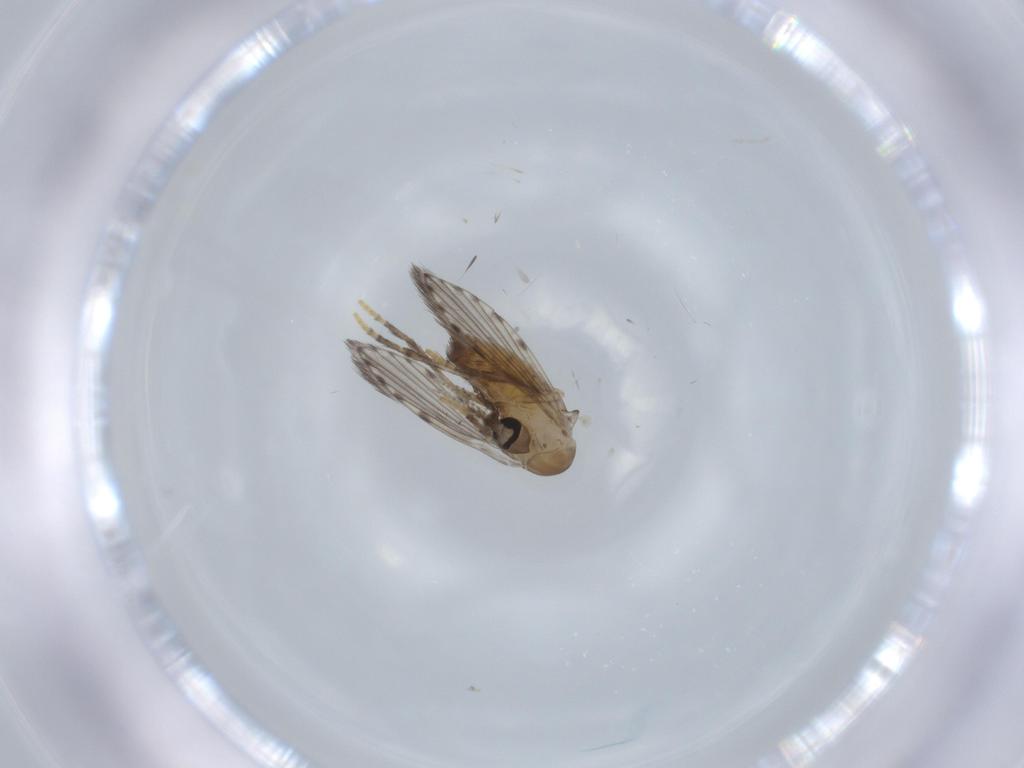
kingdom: Animalia
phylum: Arthropoda
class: Insecta
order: Diptera
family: Psychodidae
